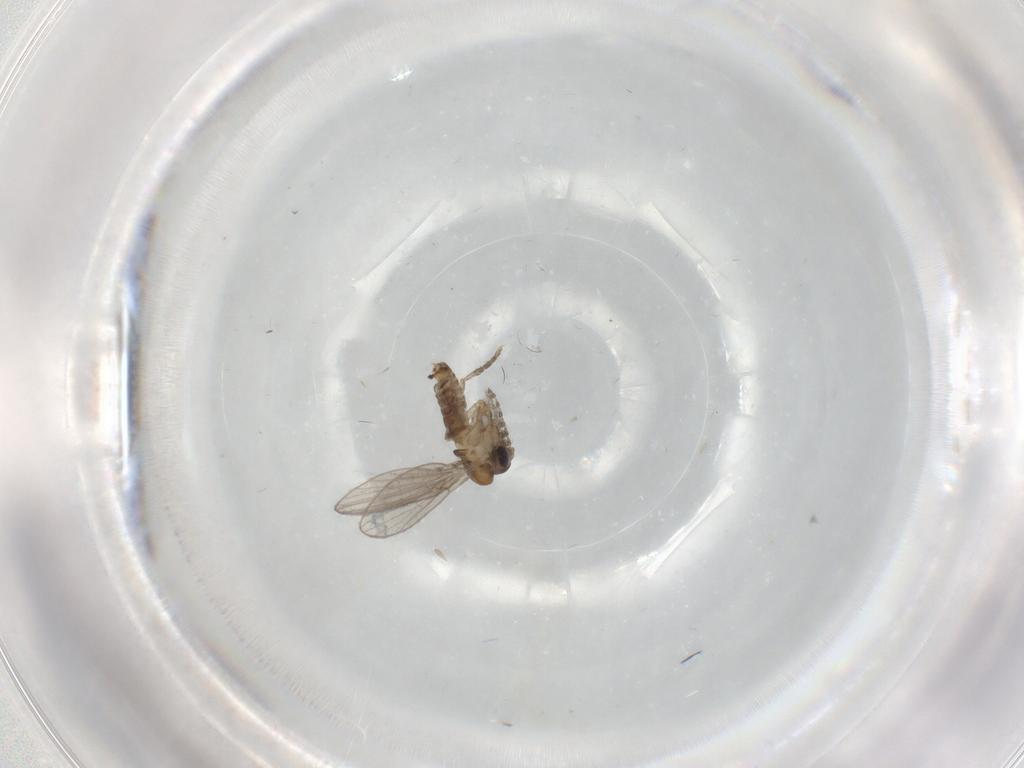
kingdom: Animalia
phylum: Arthropoda
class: Insecta
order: Diptera
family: Psychodidae
